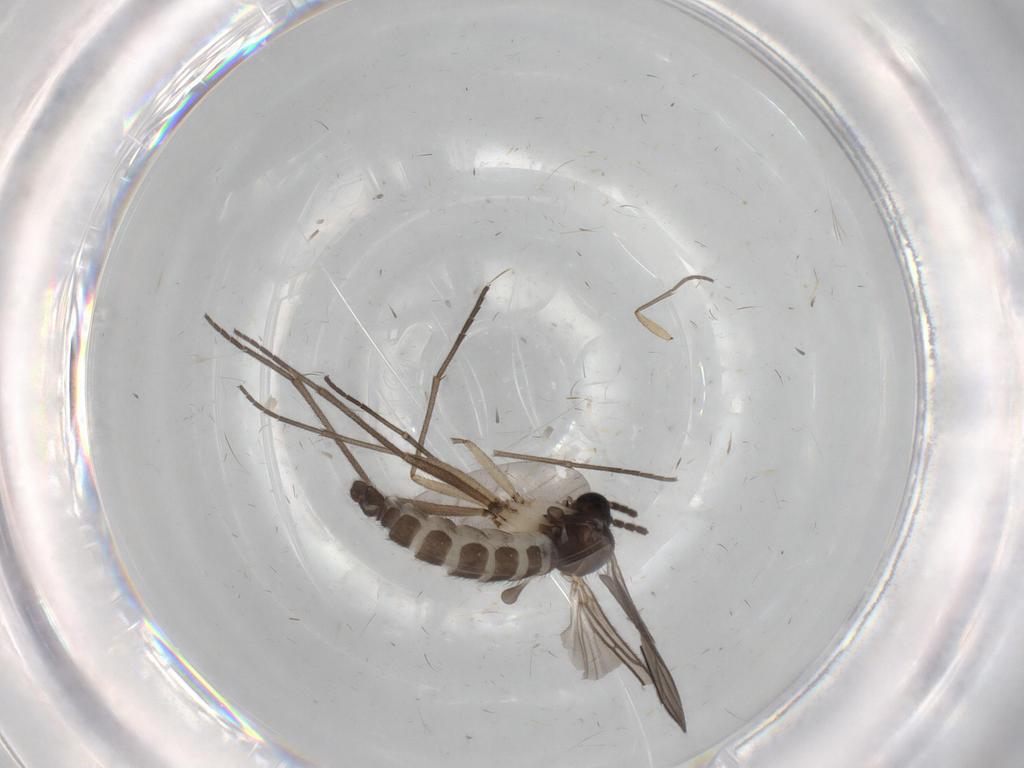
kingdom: Animalia
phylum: Arthropoda
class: Insecta
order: Diptera
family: Sciaridae
